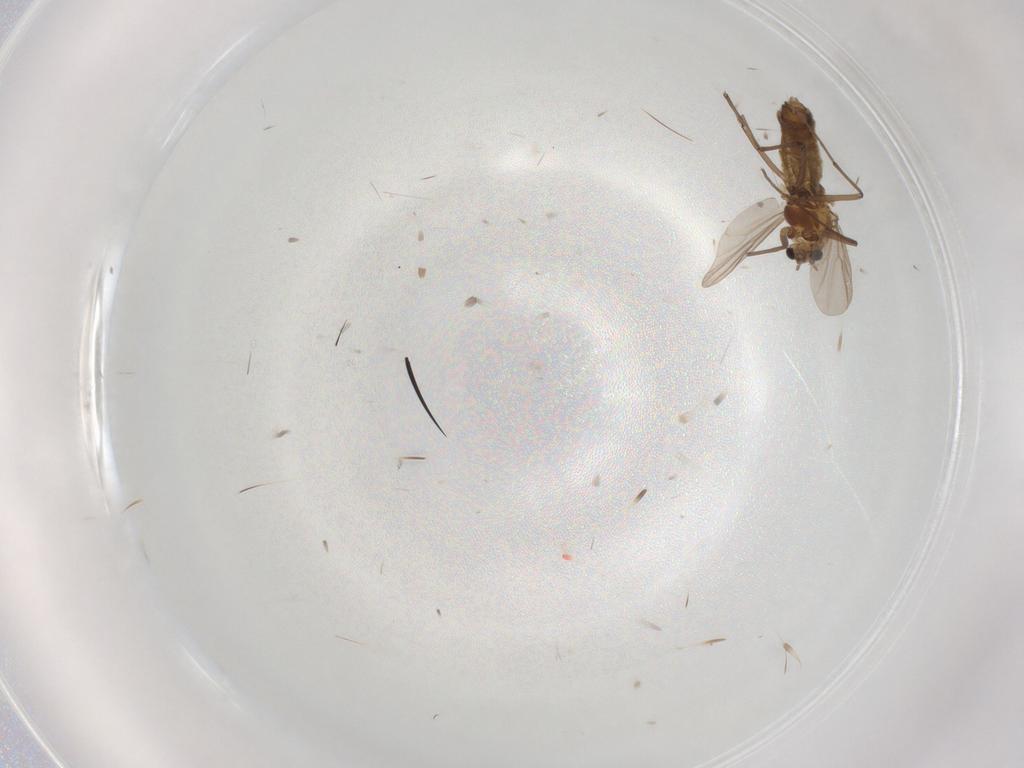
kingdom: Animalia
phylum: Arthropoda
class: Insecta
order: Diptera
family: Chironomidae
